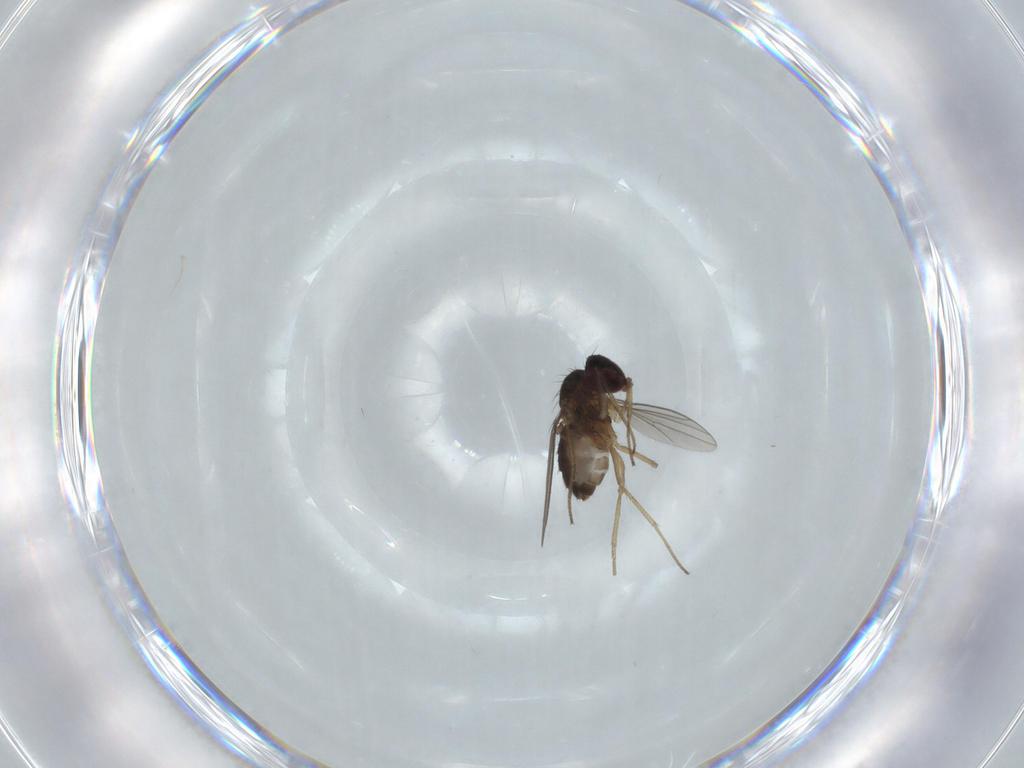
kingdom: Animalia
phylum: Arthropoda
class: Insecta
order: Diptera
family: Dolichopodidae
